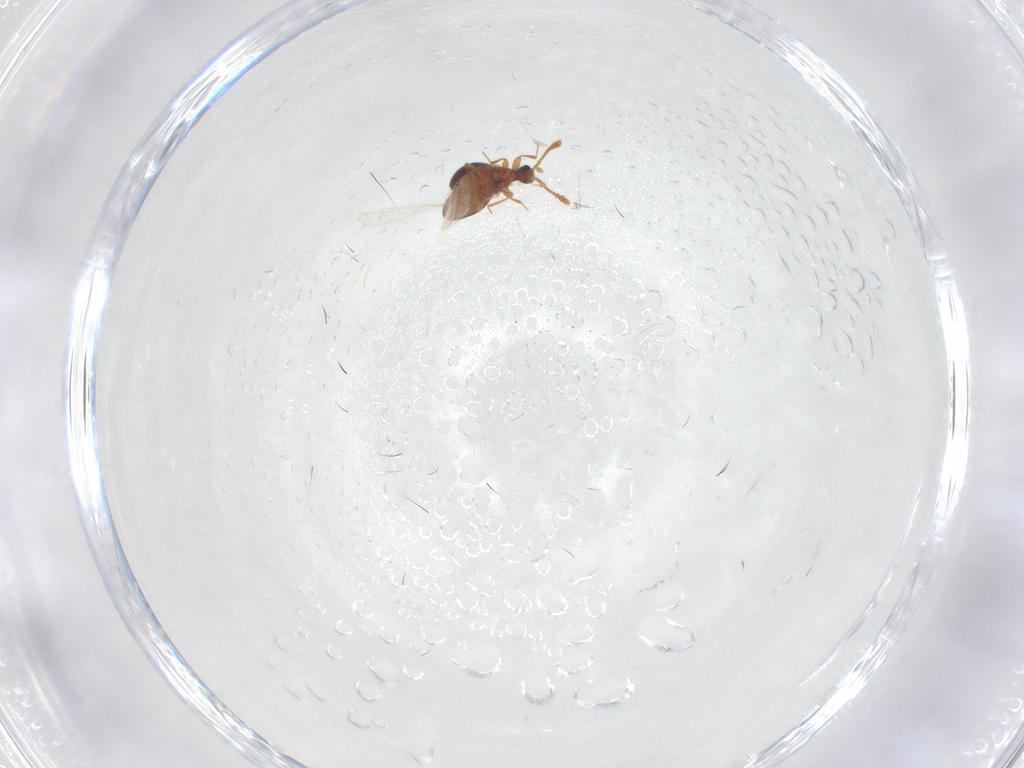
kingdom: Animalia
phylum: Arthropoda
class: Insecta
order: Coleoptera
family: Staphylinidae
